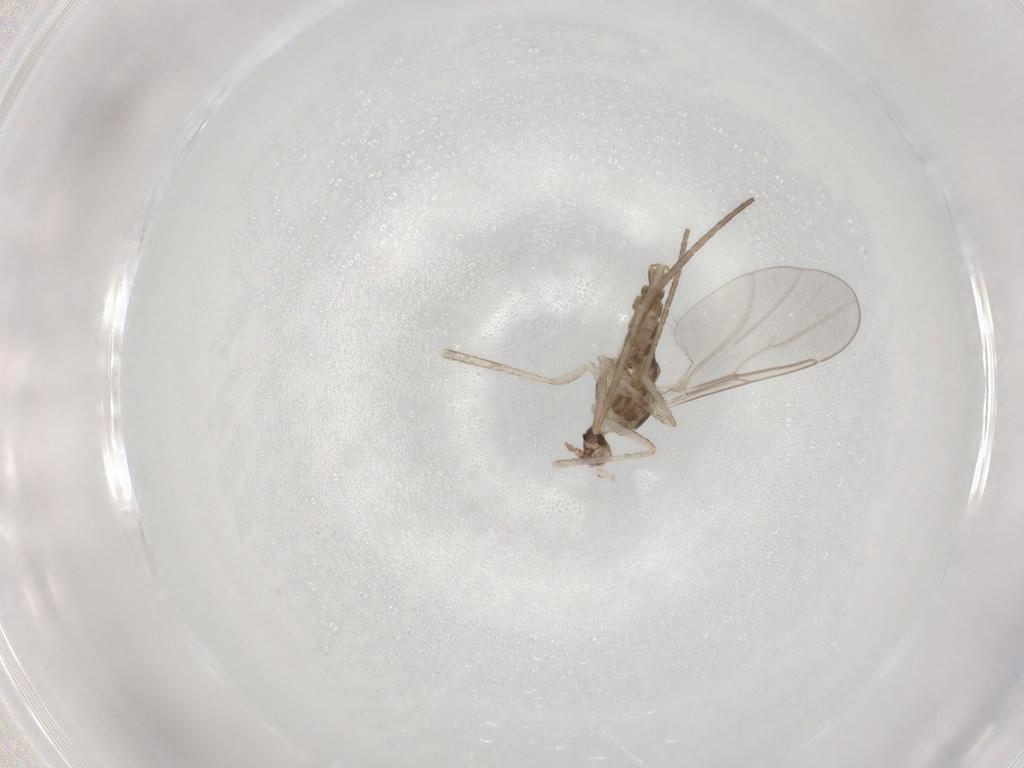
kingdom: Animalia
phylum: Arthropoda
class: Insecta
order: Diptera
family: Cecidomyiidae
